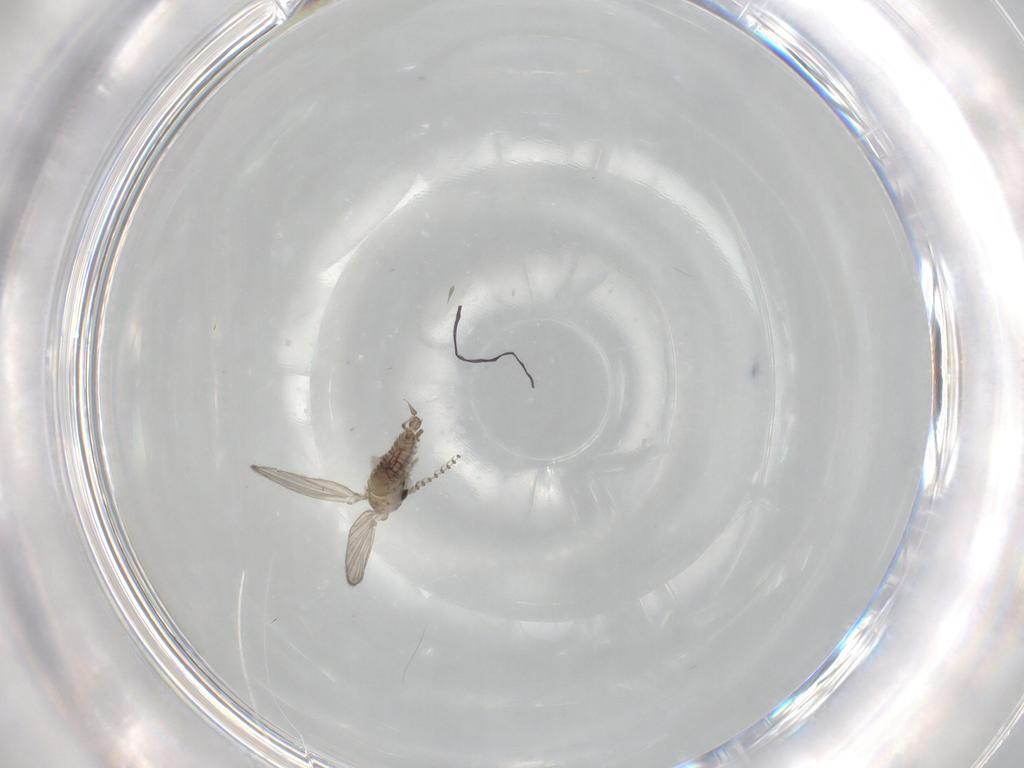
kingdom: Animalia
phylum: Arthropoda
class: Insecta
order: Diptera
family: Psychodidae
